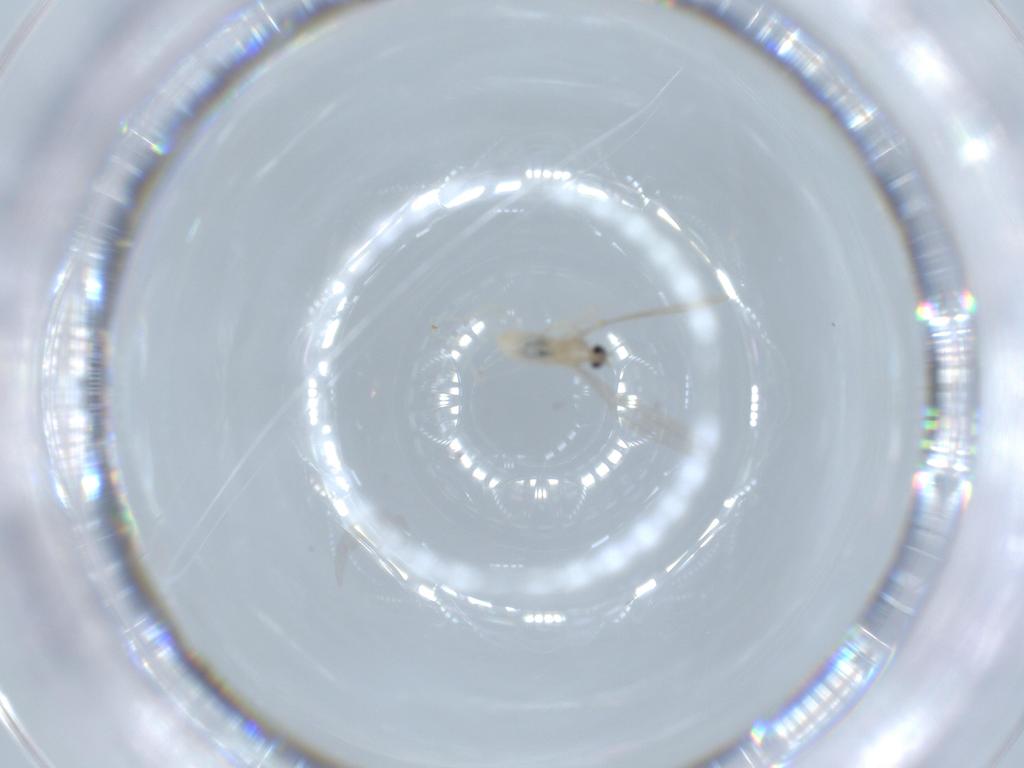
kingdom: Animalia
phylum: Arthropoda
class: Insecta
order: Diptera
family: Cecidomyiidae
